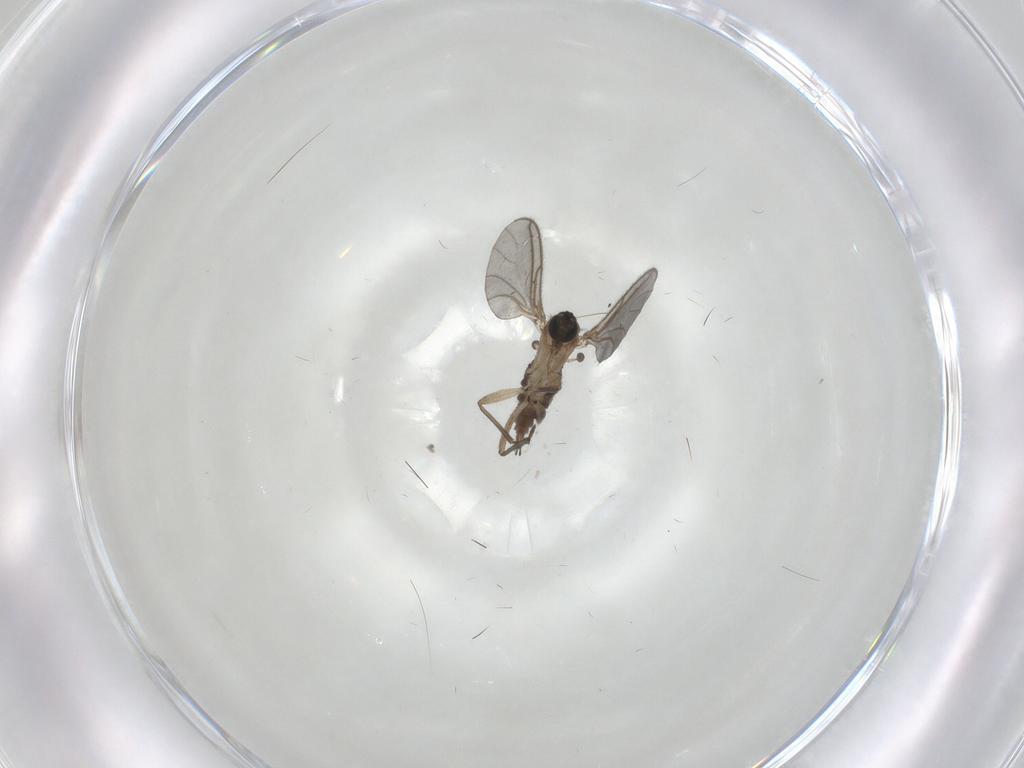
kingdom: Animalia
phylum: Arthropoda
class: Insecta
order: Diptera
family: Sciaridae
